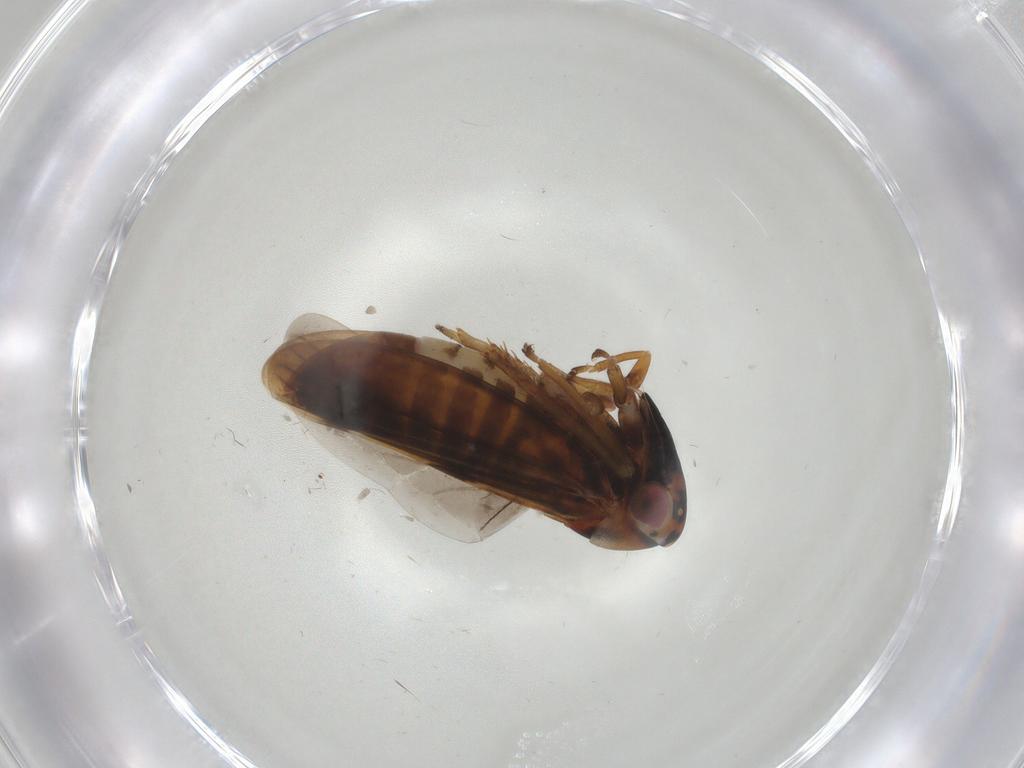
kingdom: Animalia
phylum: Arthropoda
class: Insecta
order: Hemiptera
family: Cicadellidae
